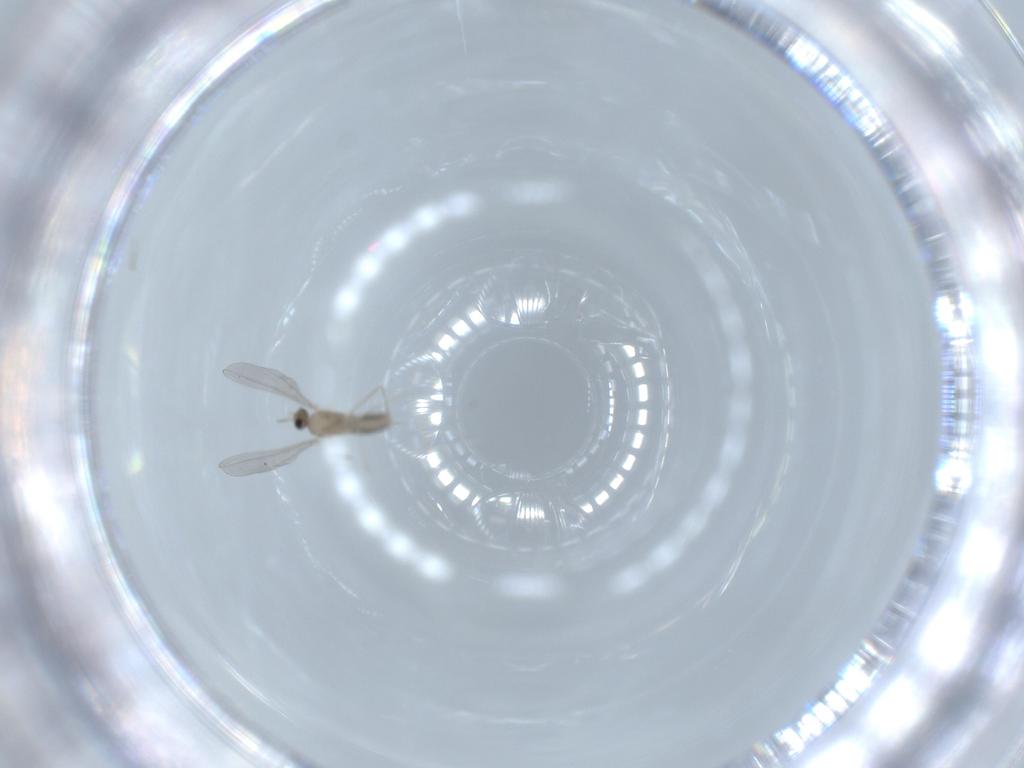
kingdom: Animalia
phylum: Arthropoda
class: Insecta
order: Diptera
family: Cecidomyiidae
